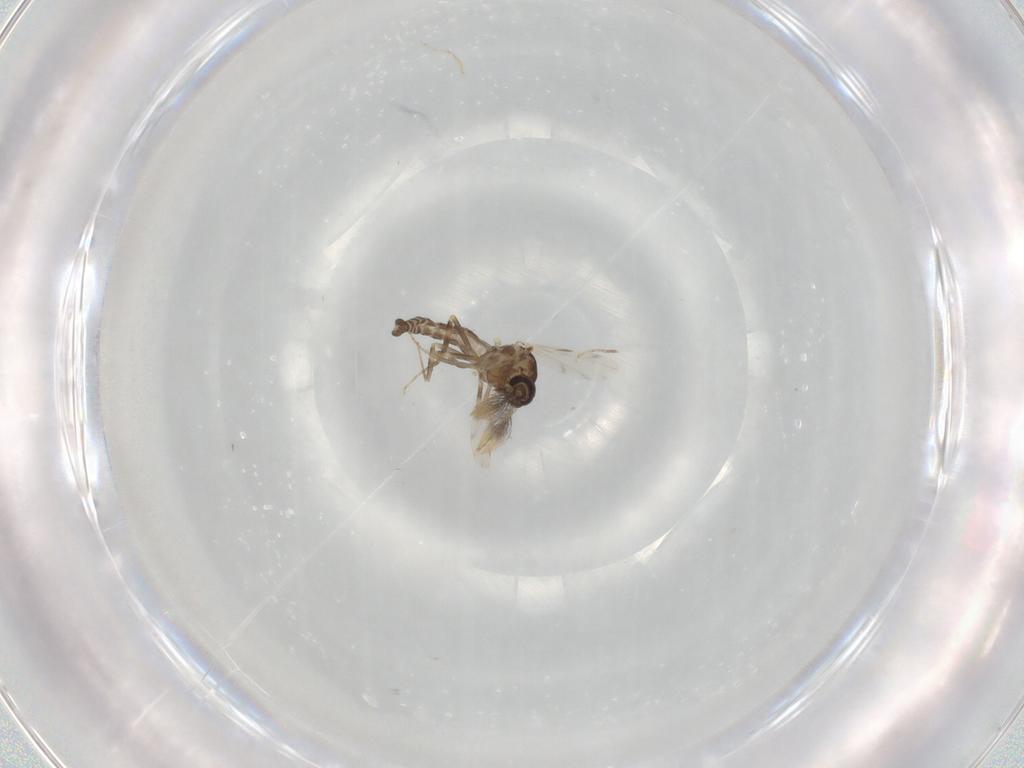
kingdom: Animalia
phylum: Arthropoda
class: Insecta
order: Diptera
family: Ceratopogonidae
